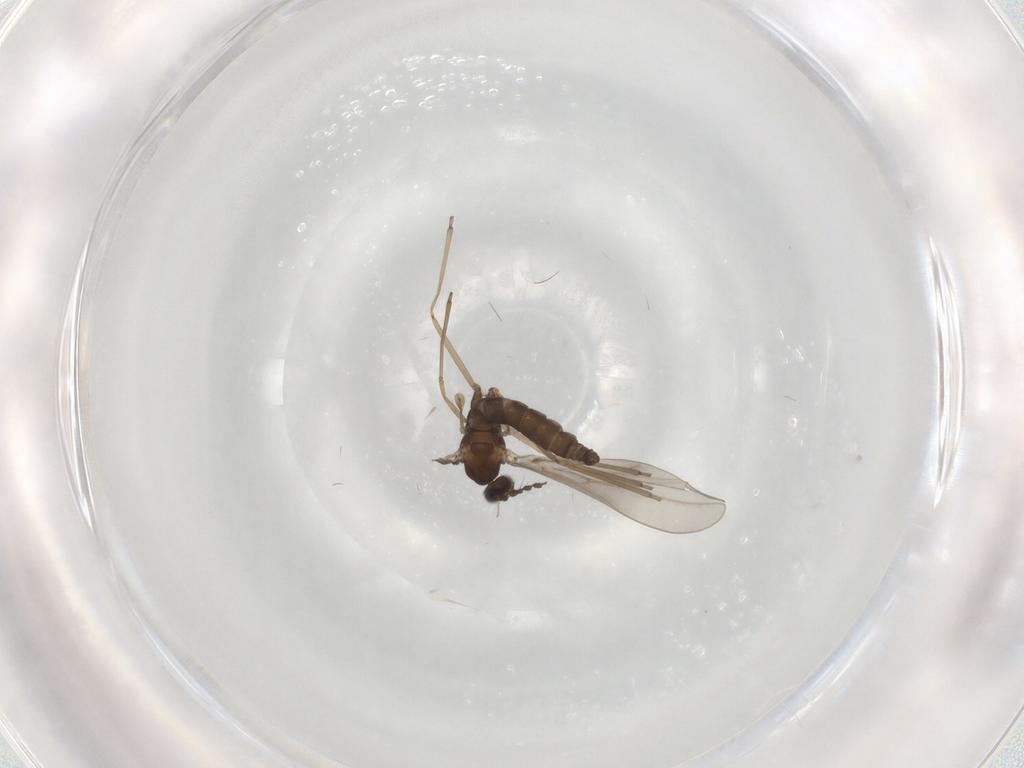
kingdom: Animalia
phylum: Arthropoda
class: Insecta
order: Diptera
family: Cecidomyiidae
